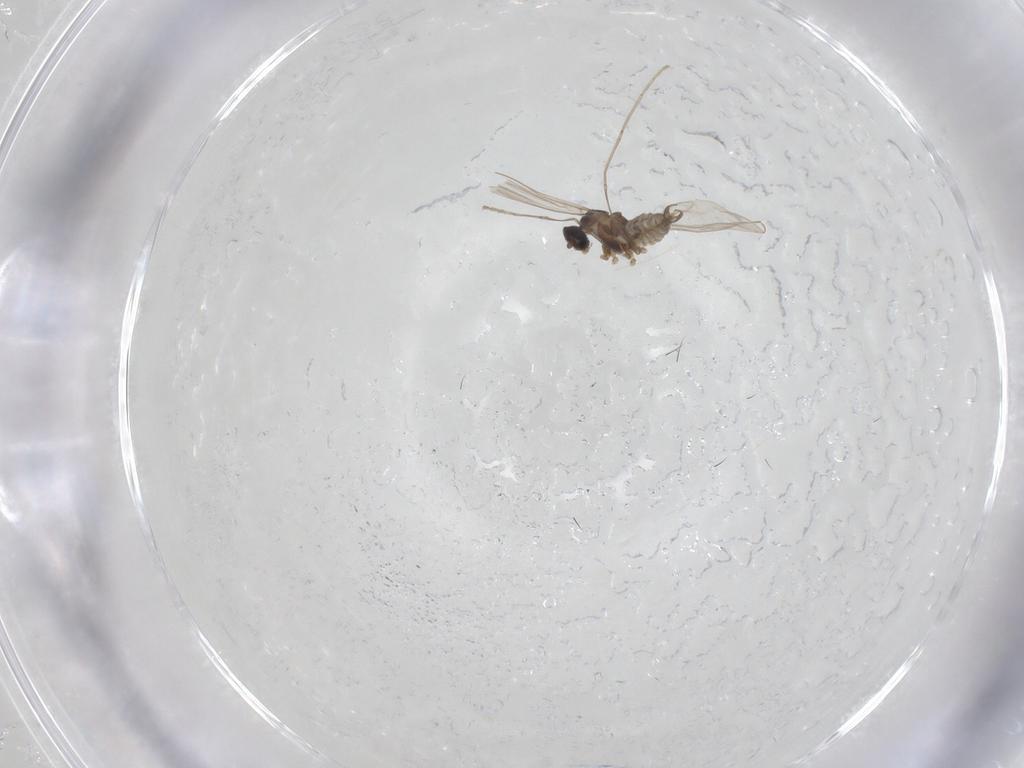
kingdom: Animalia
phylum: Arthropoda
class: Insecta
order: Diptera
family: Cecidomyiidae
